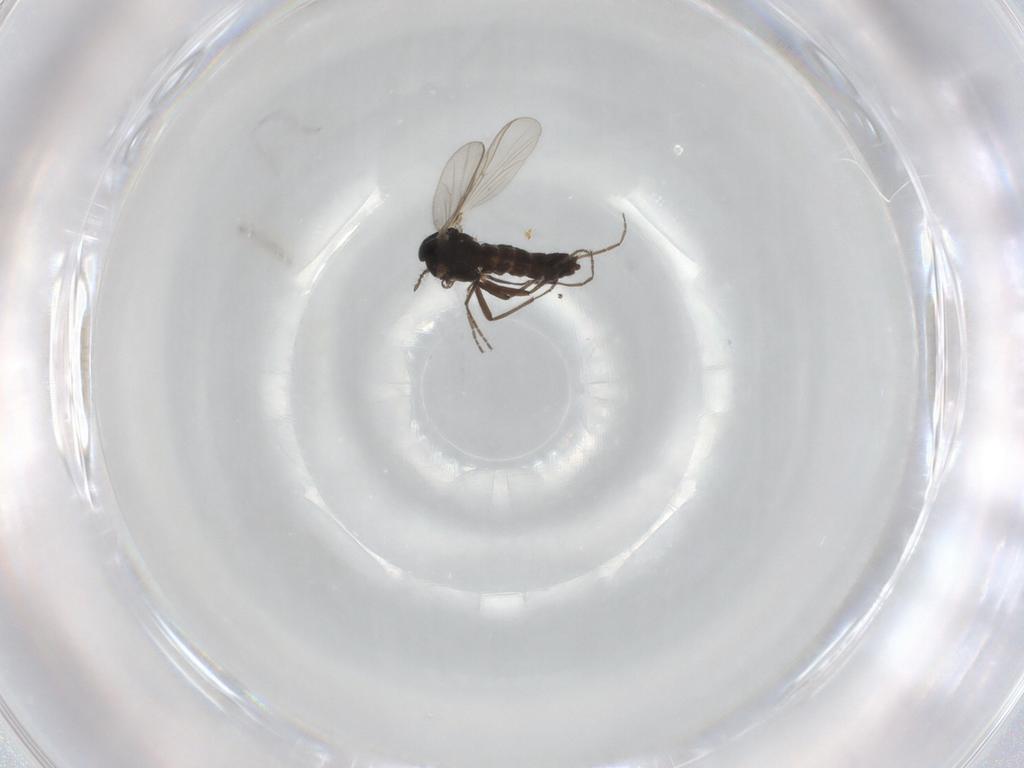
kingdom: Animalia
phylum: Arthropoda
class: Insecta
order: Diptera
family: Chironomidae
